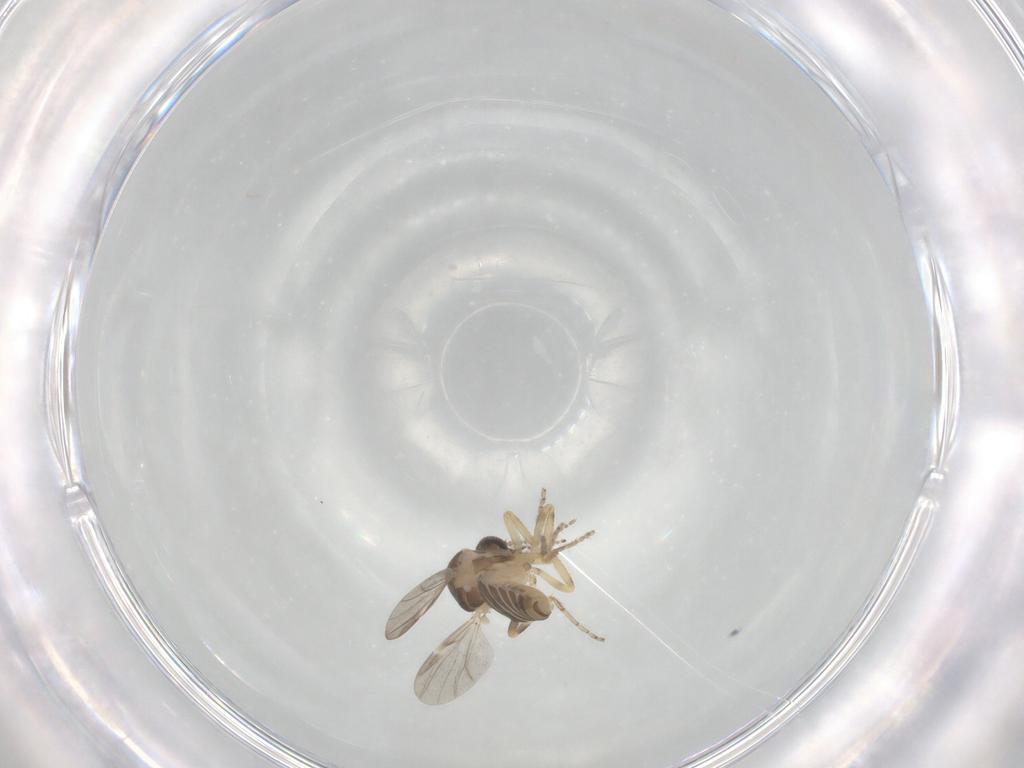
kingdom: Animalia
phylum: Arthropoda
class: Insecta
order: Diptera
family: Ceratopogonidae
